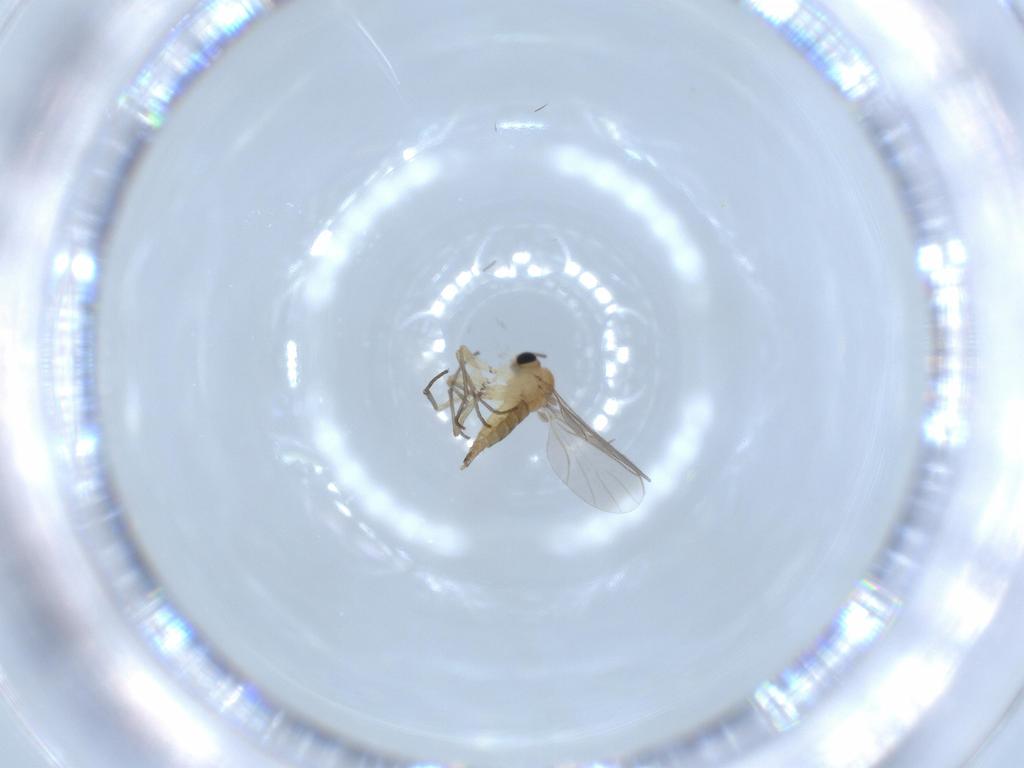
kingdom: Animalia
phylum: Arthropoda
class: Insecta
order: Diptera
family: Sciaridae
